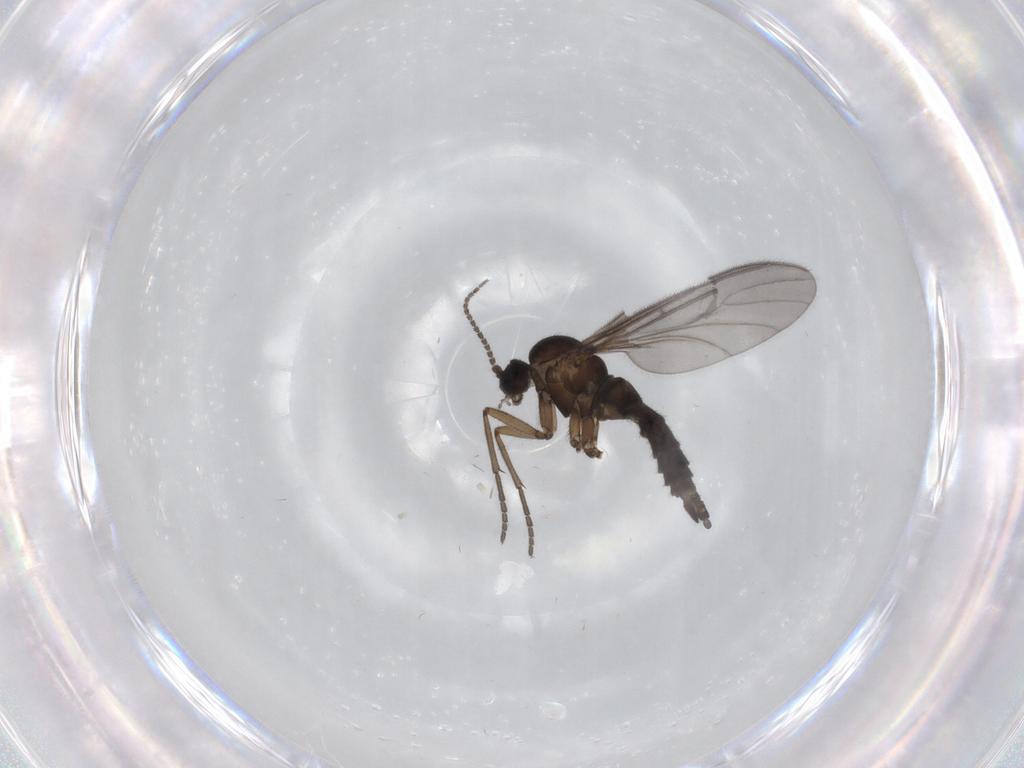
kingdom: Animalia
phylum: Arthropoda
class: Insecta
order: Diptera
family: Sciaridae
